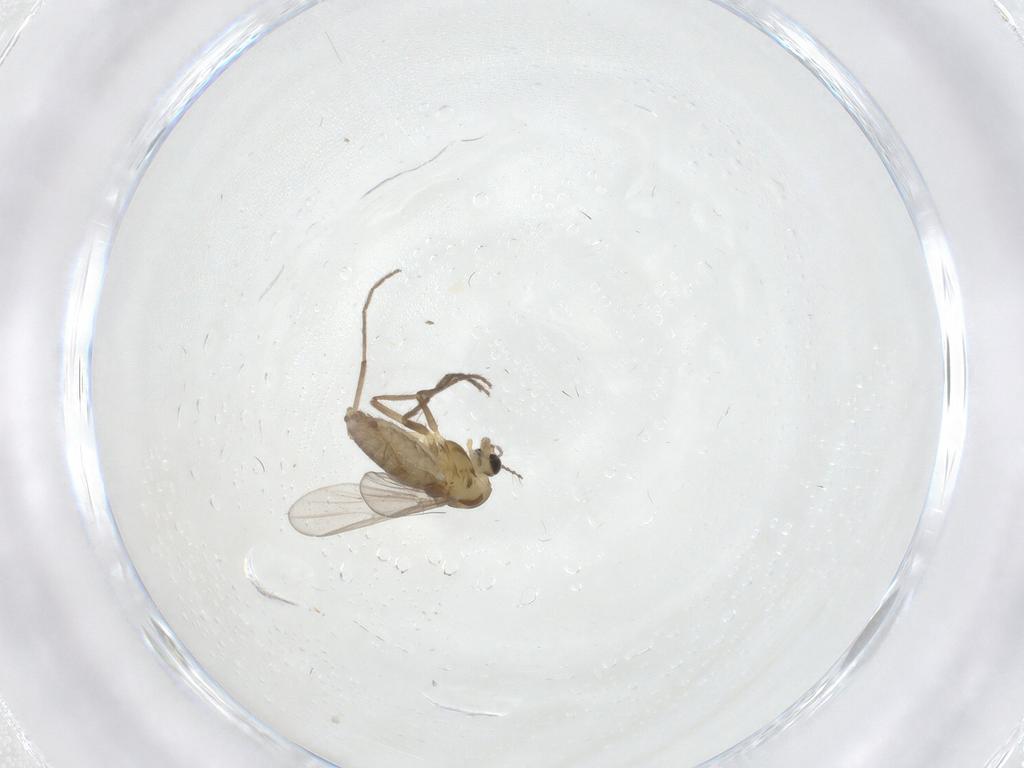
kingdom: Animalia
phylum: Arthropoda
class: Insecta
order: Diptera
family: Chironomidae
